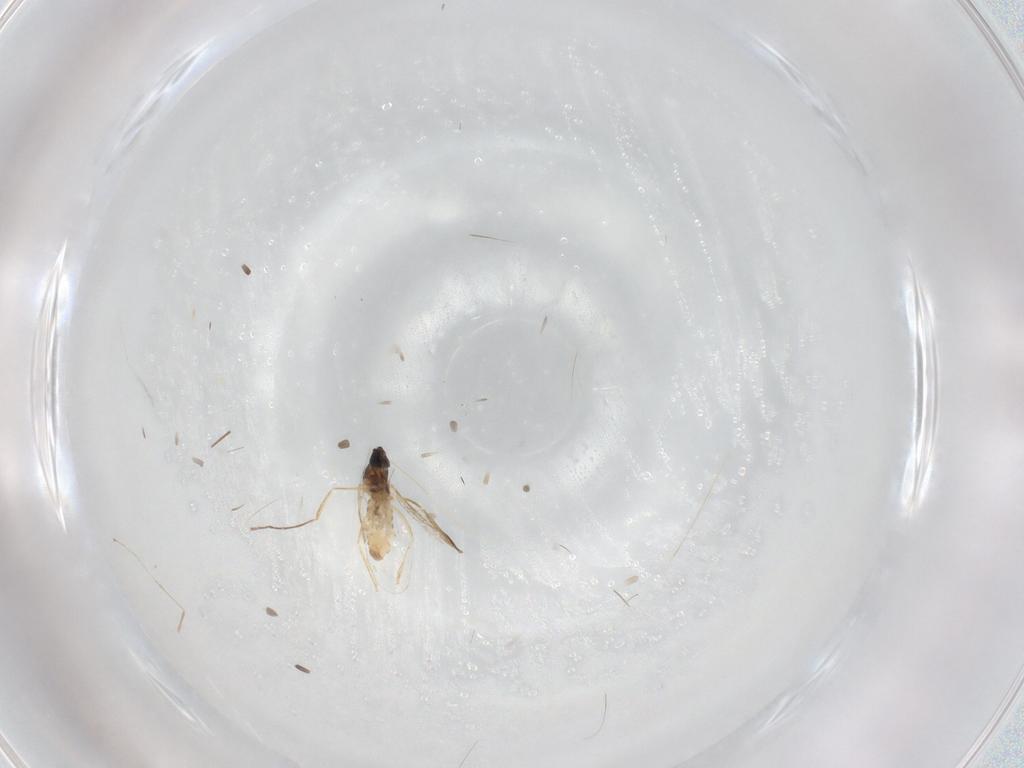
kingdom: Animalia
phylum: Arthropoda
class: Insecta
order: Diptera
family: Cecidomyiidae
